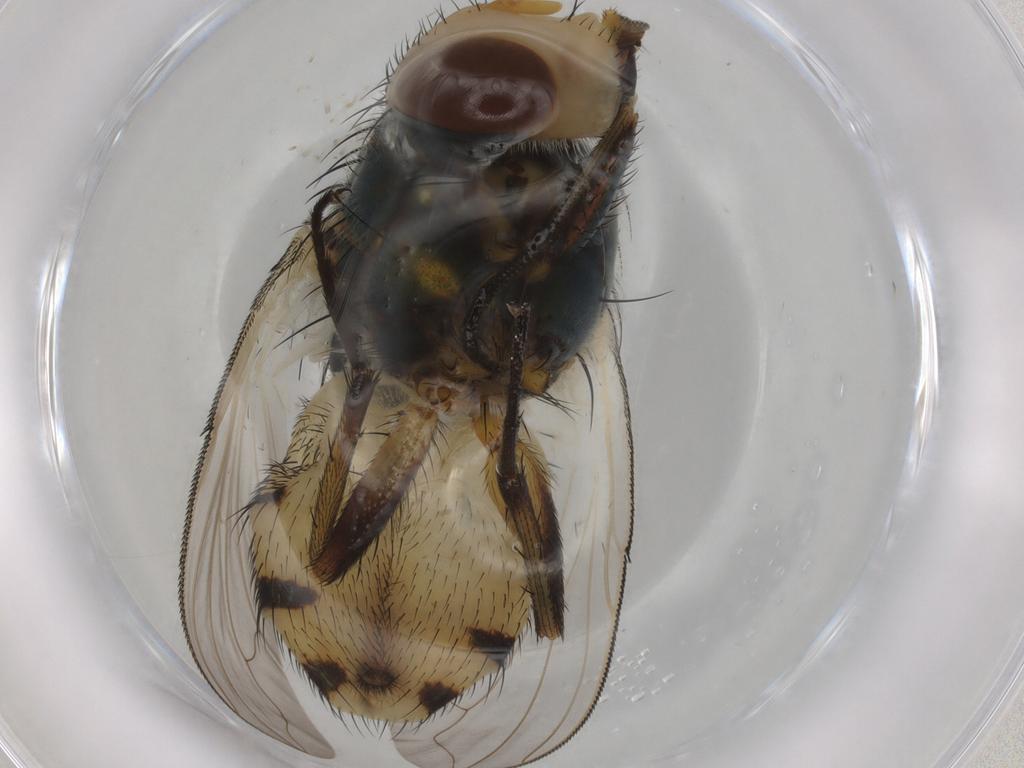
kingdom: Animalia
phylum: Arthropoda
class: Insecta
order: Diptera
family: Calliphoridae
